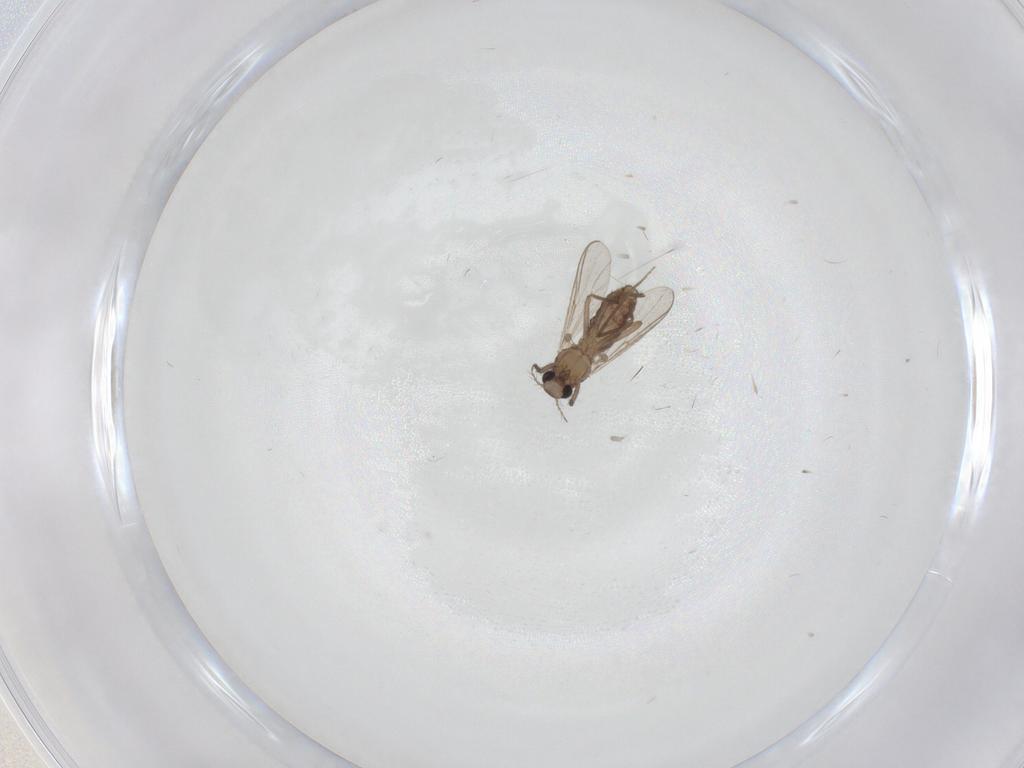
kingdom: Animalia
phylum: Arthropoda
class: Insecta
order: Diptera
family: Chironomidae
